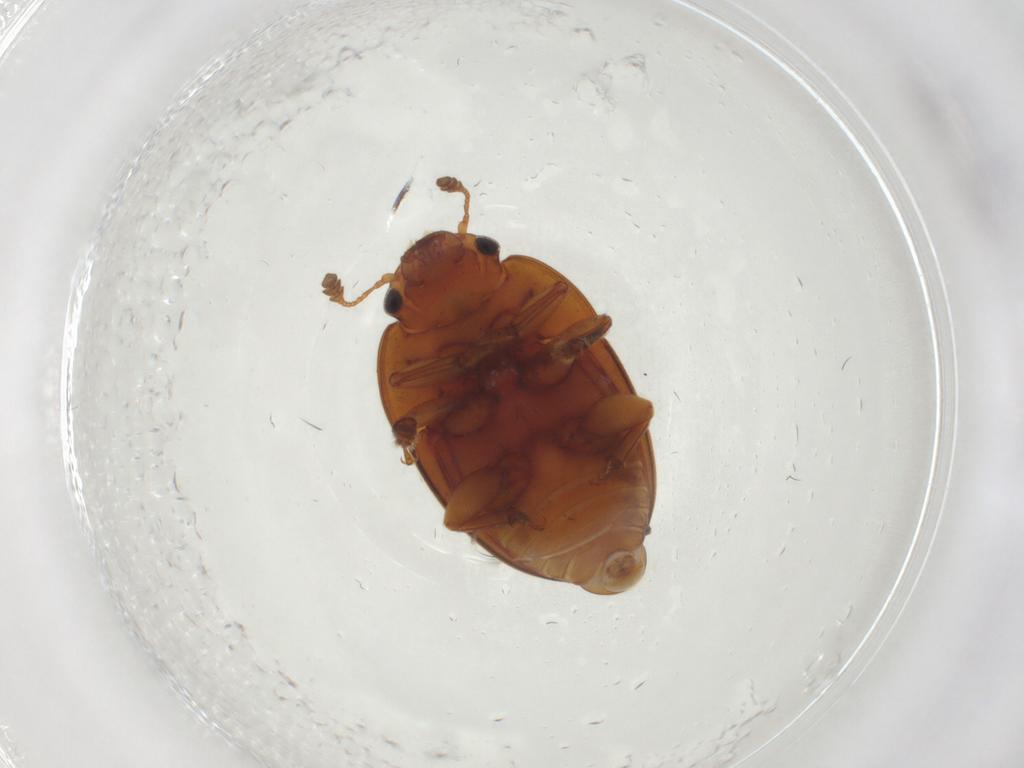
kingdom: Animalia
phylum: Arthropoda
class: Insecta
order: Coleoptera
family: Nitidulidae
